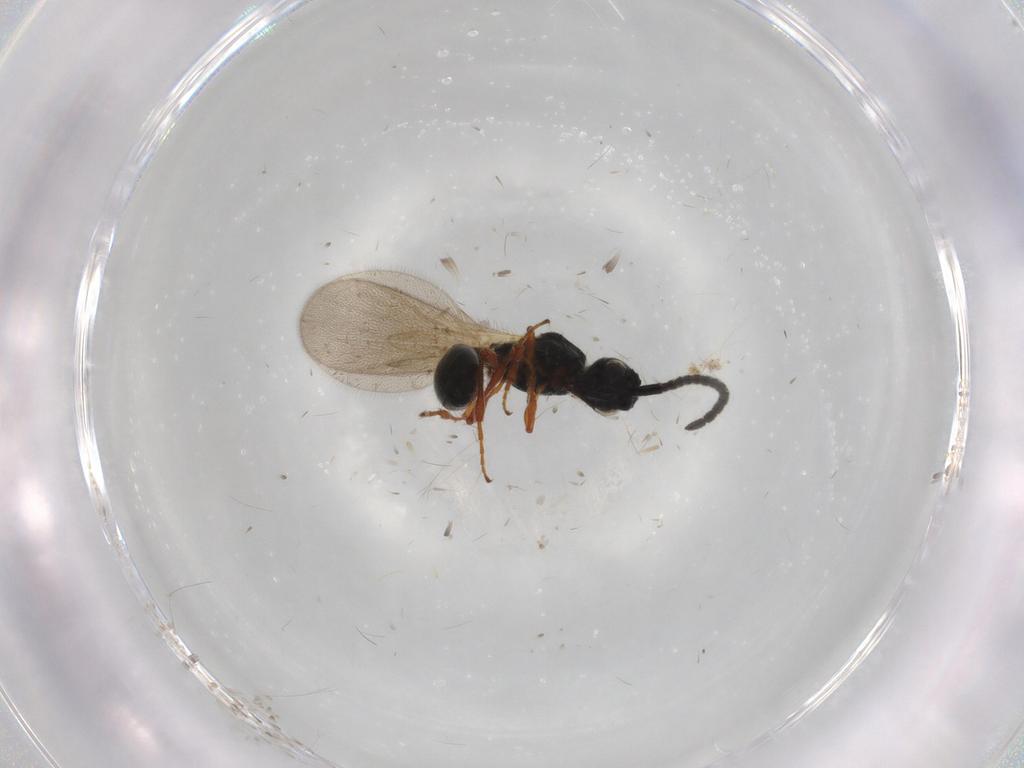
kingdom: Animalia
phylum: Arthropoda
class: Insecta
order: Hymenoptera
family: Diapriidae
